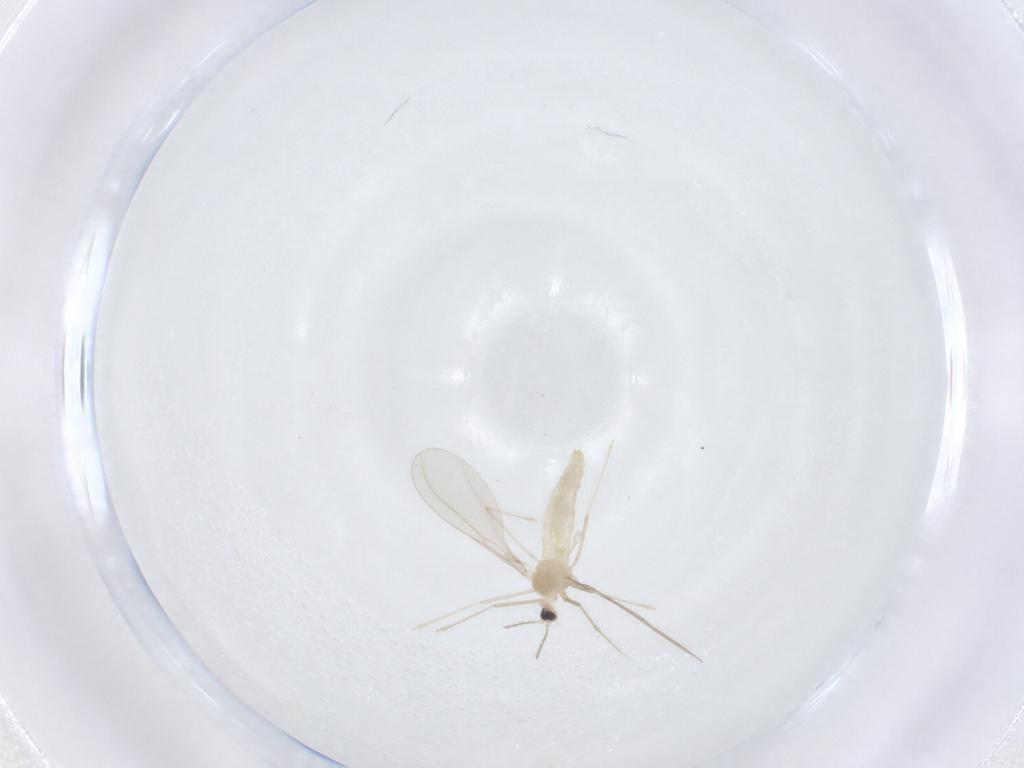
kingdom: Animalia
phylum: Arthropoda
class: Insecta
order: Diptera
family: Cecidomyiidae
